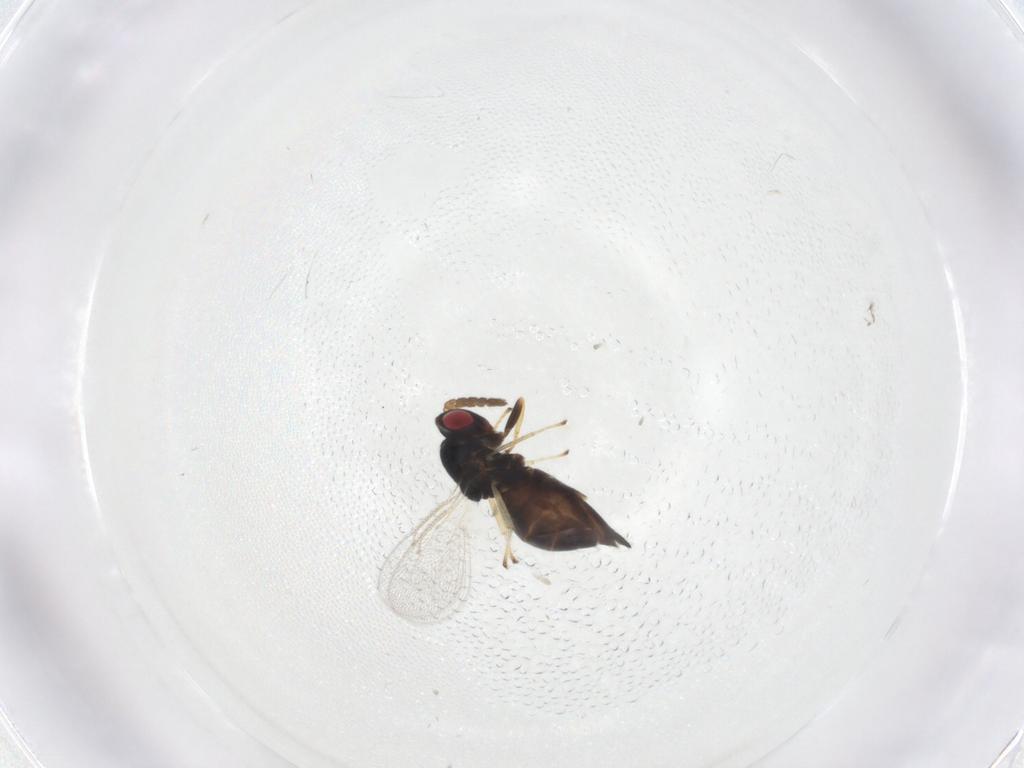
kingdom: Animalia
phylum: Arthropoda
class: Insecta
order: Hymenoptera
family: Eulophidae
